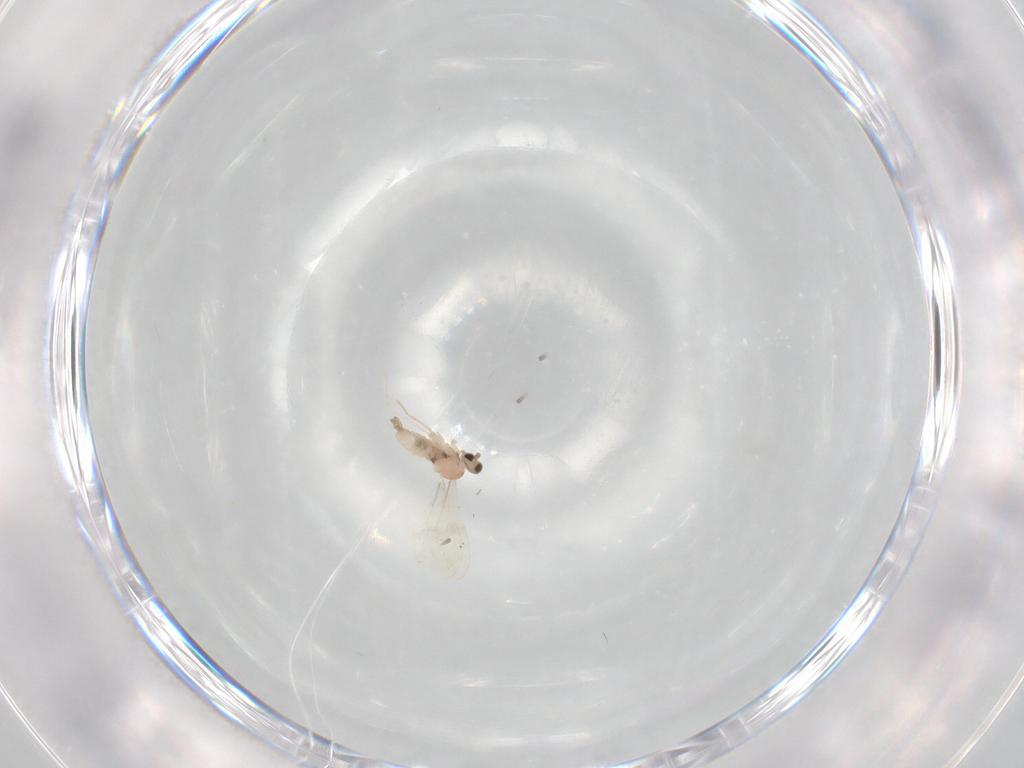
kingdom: Animalia
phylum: Arthropoda
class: Insecta
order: Diptera
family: Cecidomyiidae
